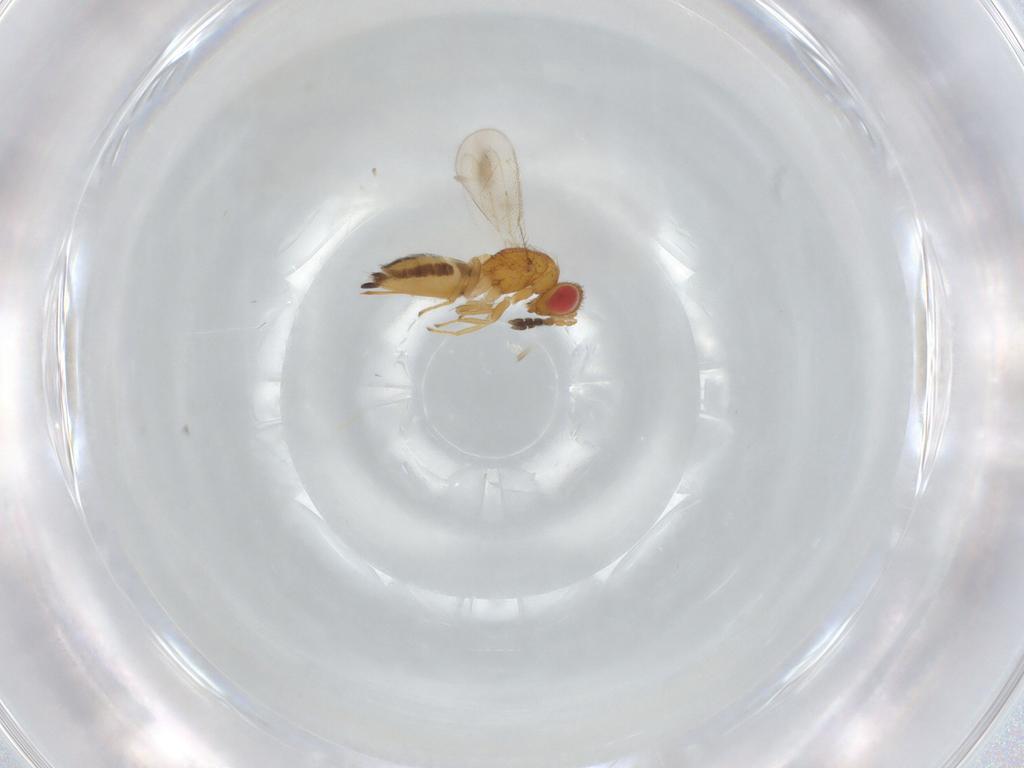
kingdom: Animalia
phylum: Arthropoda
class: Insecta
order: Hymenoptera
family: Eulophidae
